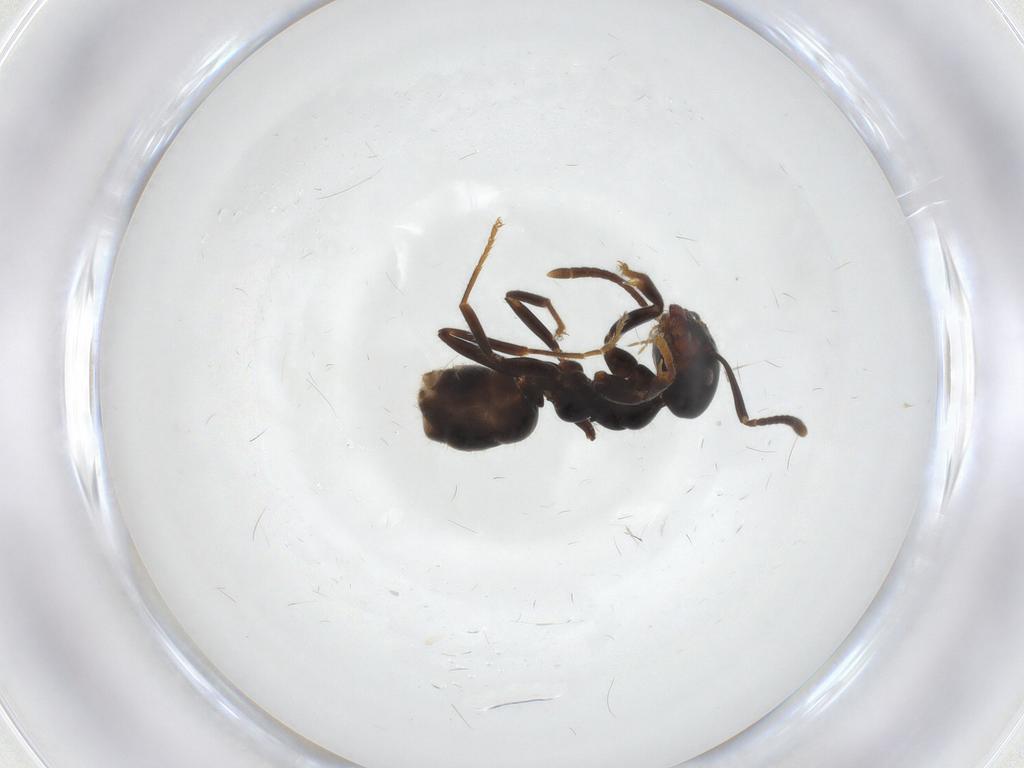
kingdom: Animalia
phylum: Arthropoda
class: Insecta
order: Hymenoptera
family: Formicidae
